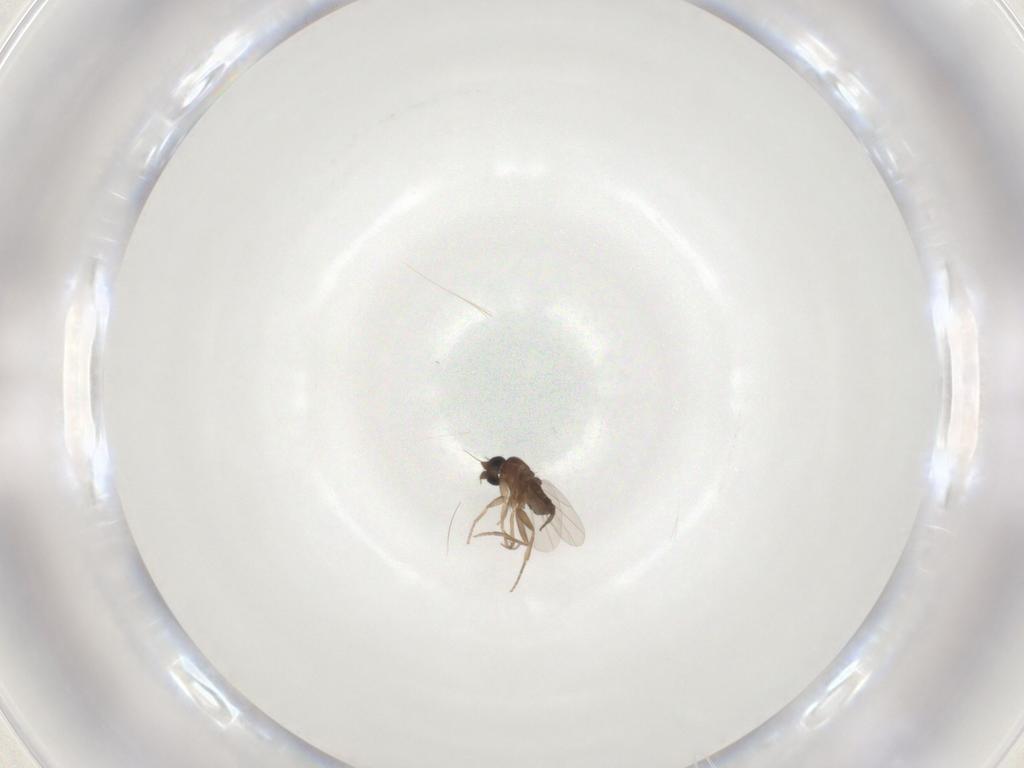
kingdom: Animalia
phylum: Arthropoda
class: Insecta
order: Diptera
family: Phoridae
